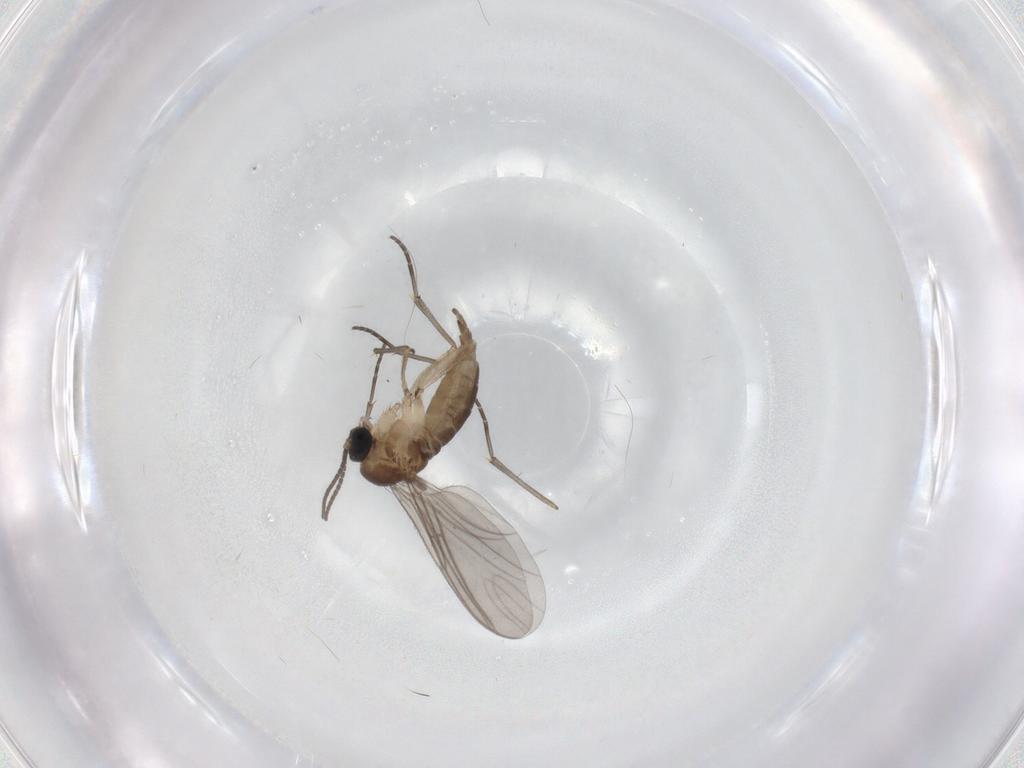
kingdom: Animalia
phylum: Arthropoda
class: Insecta
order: Diptera
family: Sciaridae
